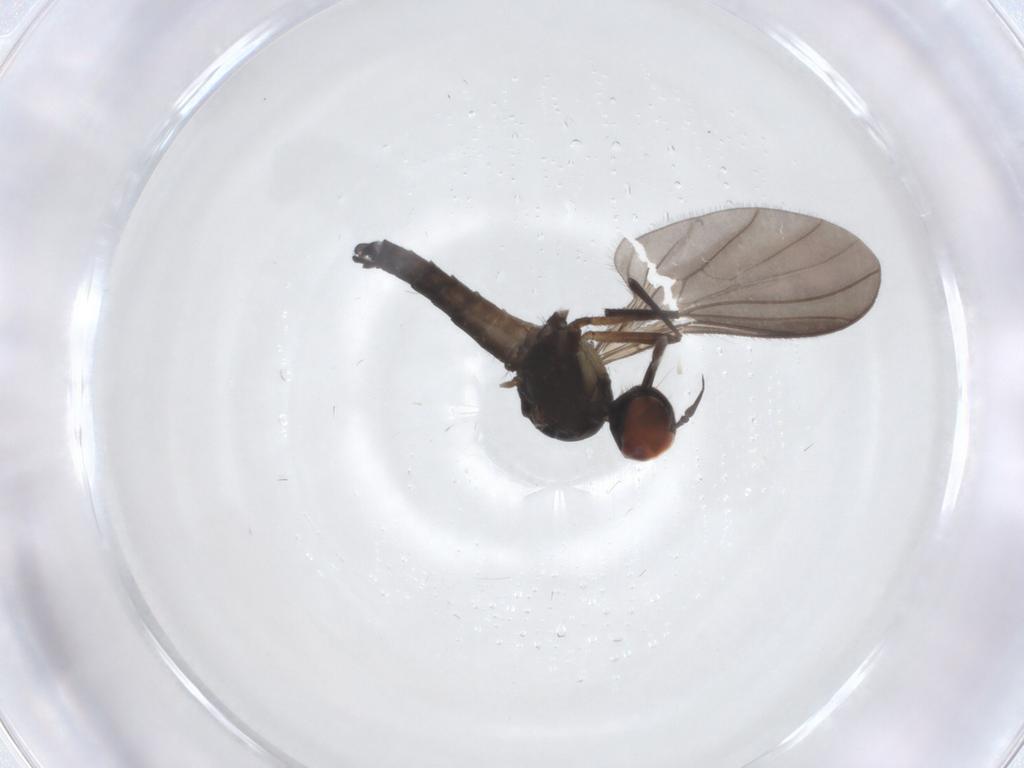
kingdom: Animalia
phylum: Arthropoda
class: Insecta
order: Diptera
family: Empididae
